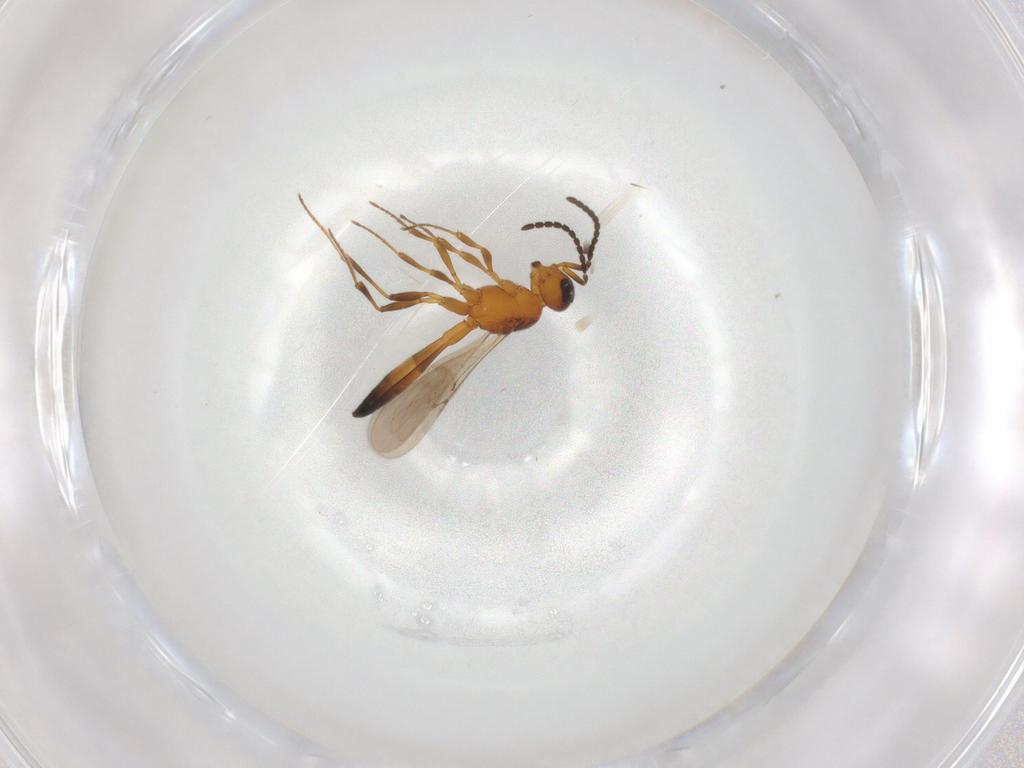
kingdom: Animalia
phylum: Arthropoda
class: Insecta
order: Hymenoptera
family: Scelionidae
